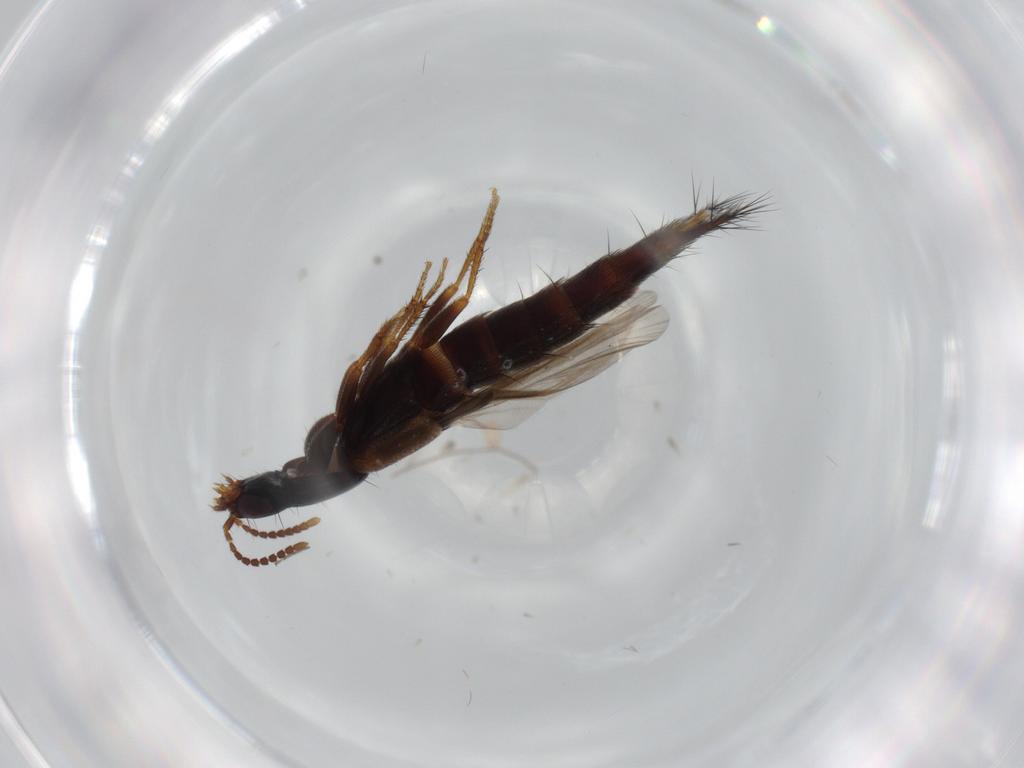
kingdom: Animalia
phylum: Arthropoda
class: Insecta
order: Coleoptera
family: Staphylinidae
